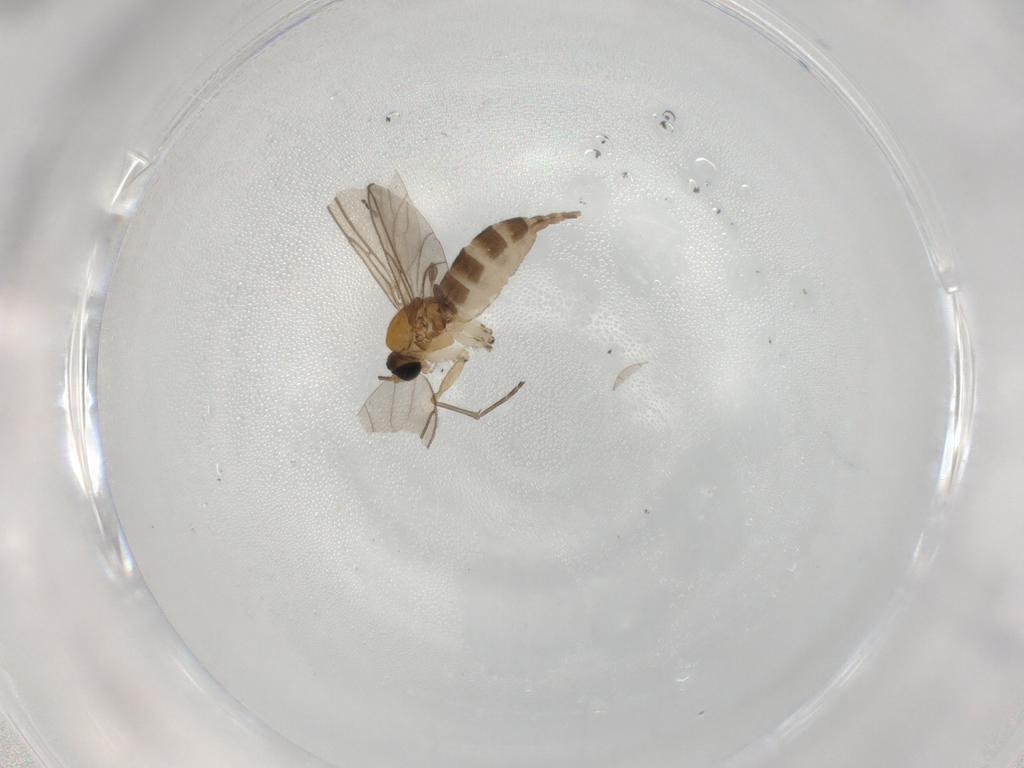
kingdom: Animalia
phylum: Arthropoda
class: Insecta
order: Diptera
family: Sciaridae
